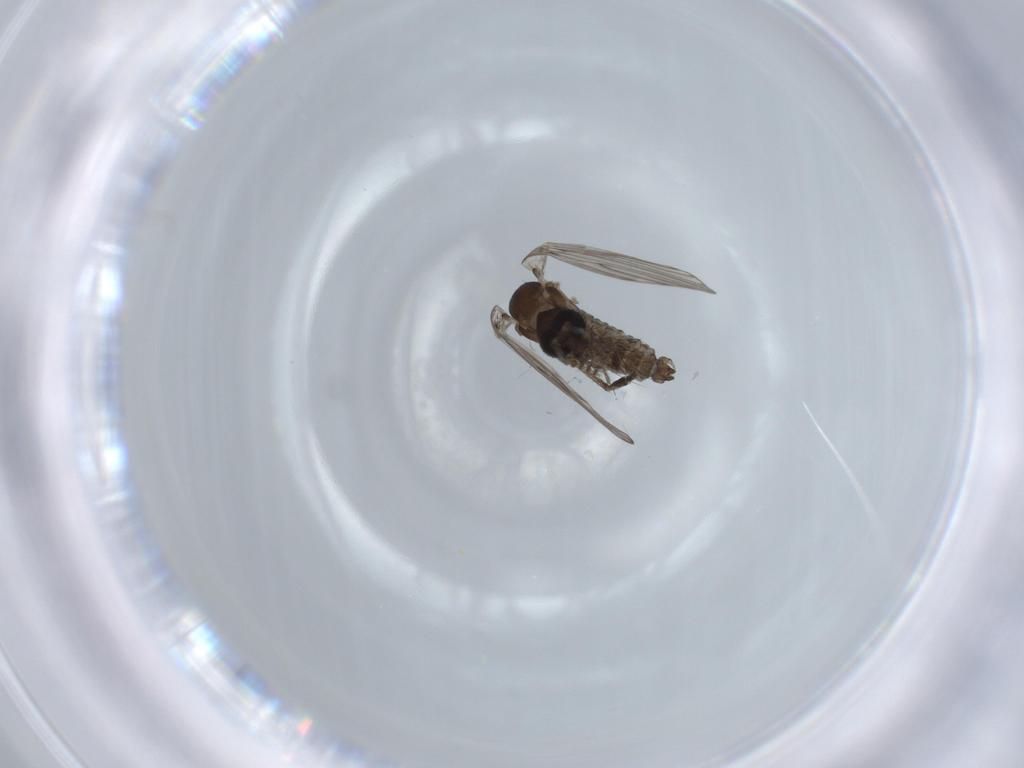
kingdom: Animalia
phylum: Arthropoda
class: Insecta
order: Diptera
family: Psychodidae
